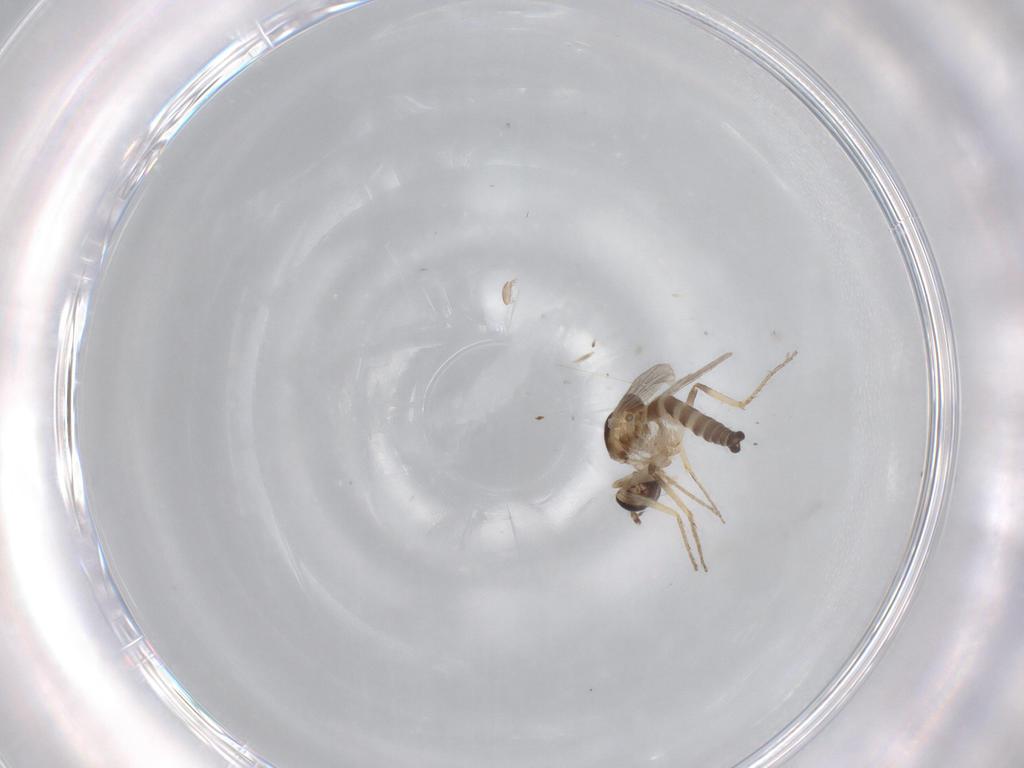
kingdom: Animalia
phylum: Arthropoda
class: Insecta
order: Diptera
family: Ceratopogonidae
